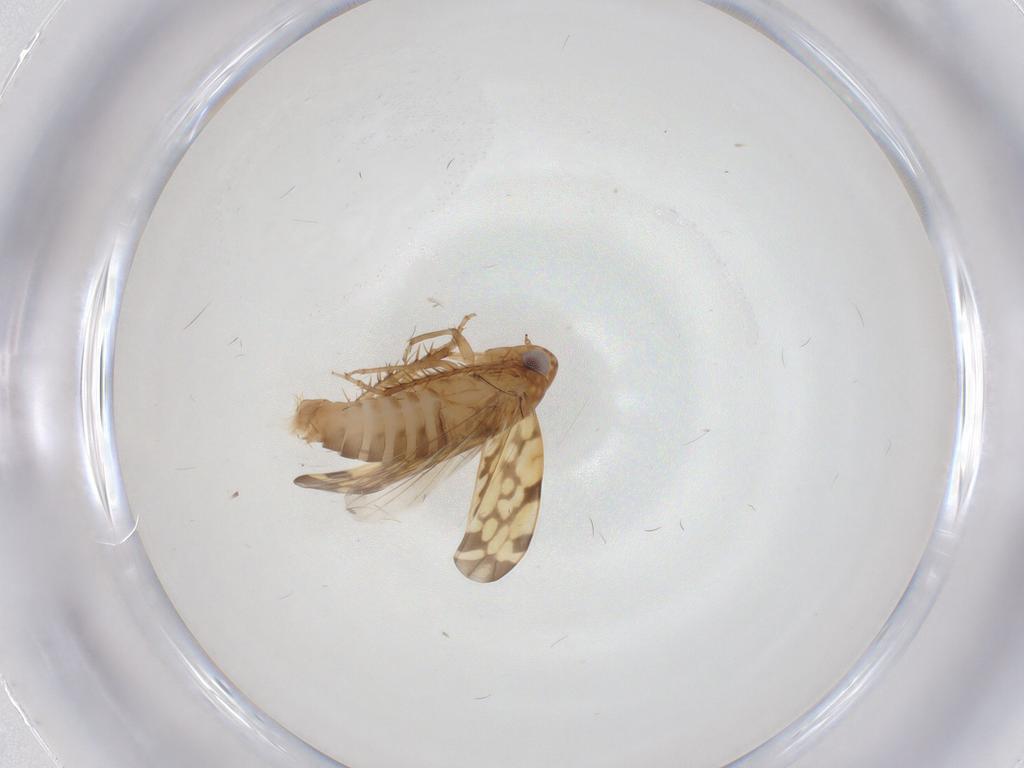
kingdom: Animalia
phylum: Arthropoda
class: Insecta
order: Hemiptera
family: Cicadellidae
